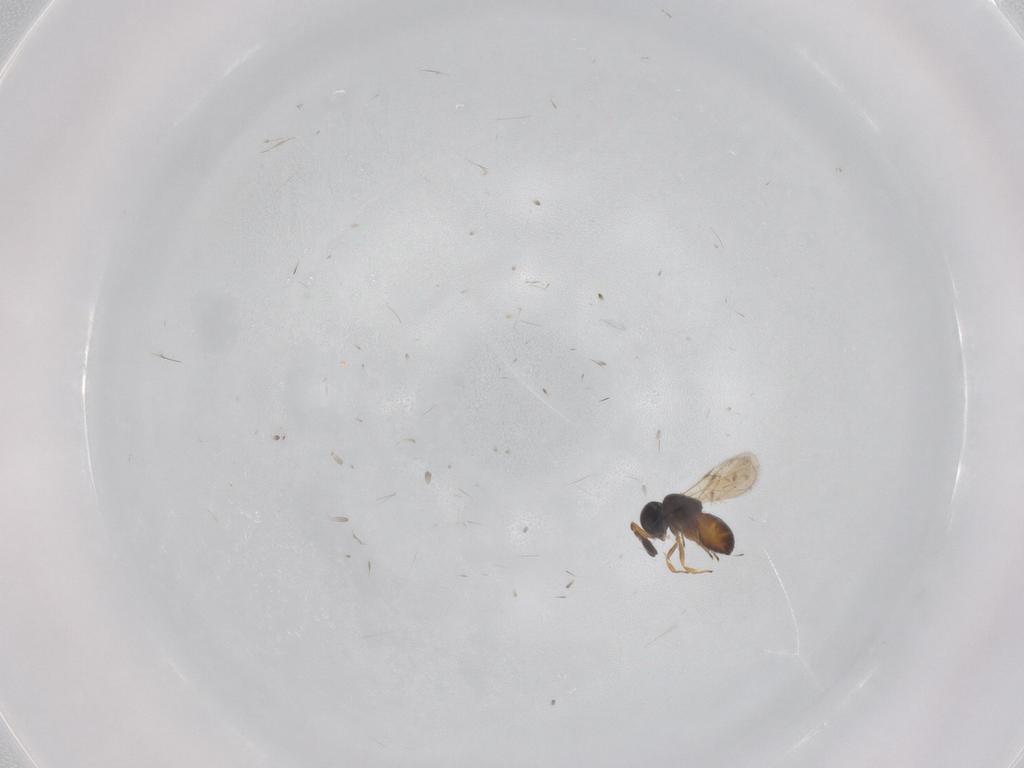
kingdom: Animalia
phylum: Arthropoda
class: Insecta
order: Hymenoptera
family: Scelionidae
